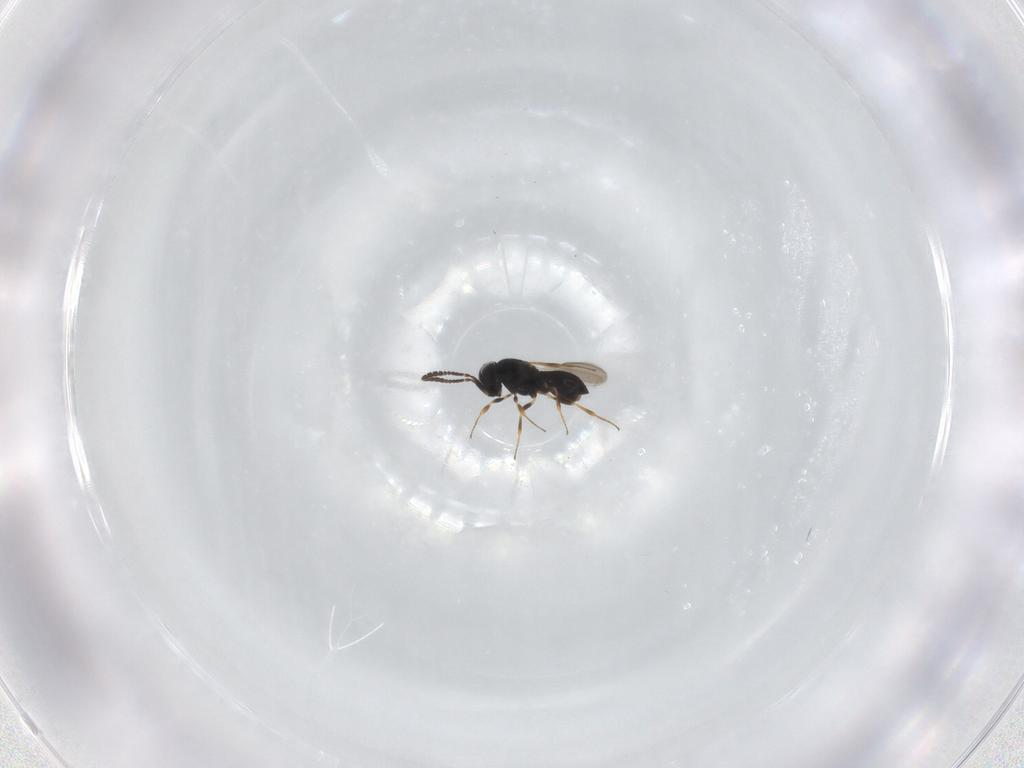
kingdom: Animalia
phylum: Arthropoda
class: Insecta
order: Hymenoptera
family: Scelionidae
